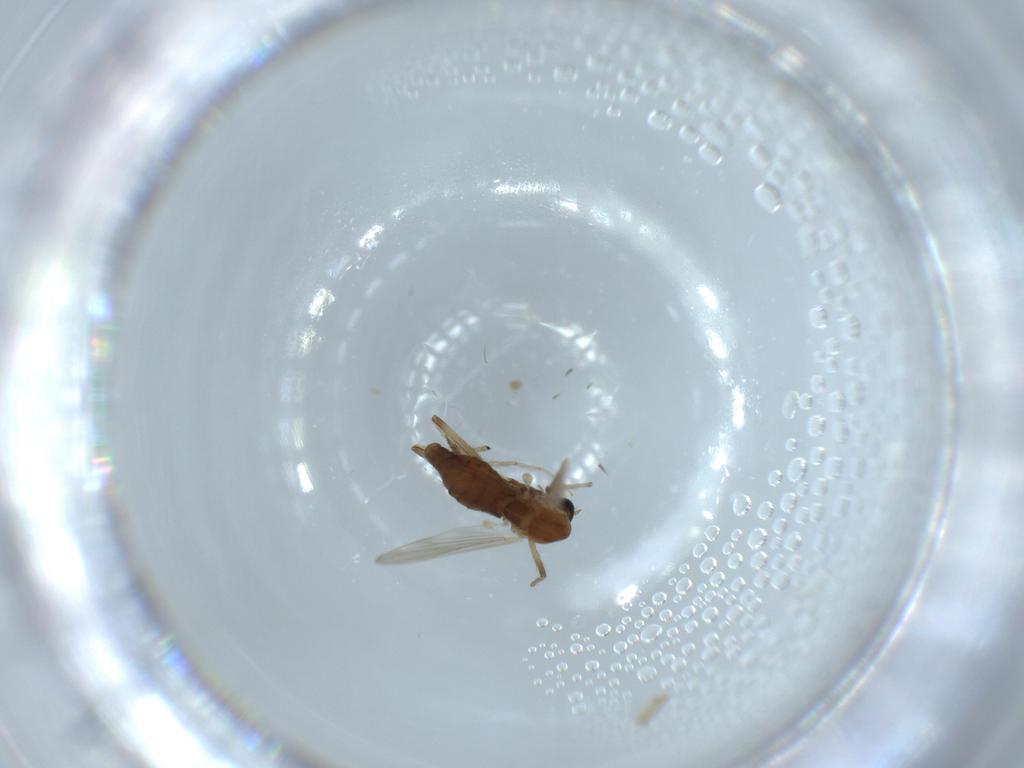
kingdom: Animalia
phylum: Arthropoda
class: Insecta
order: Diptera
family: Chironomidae
